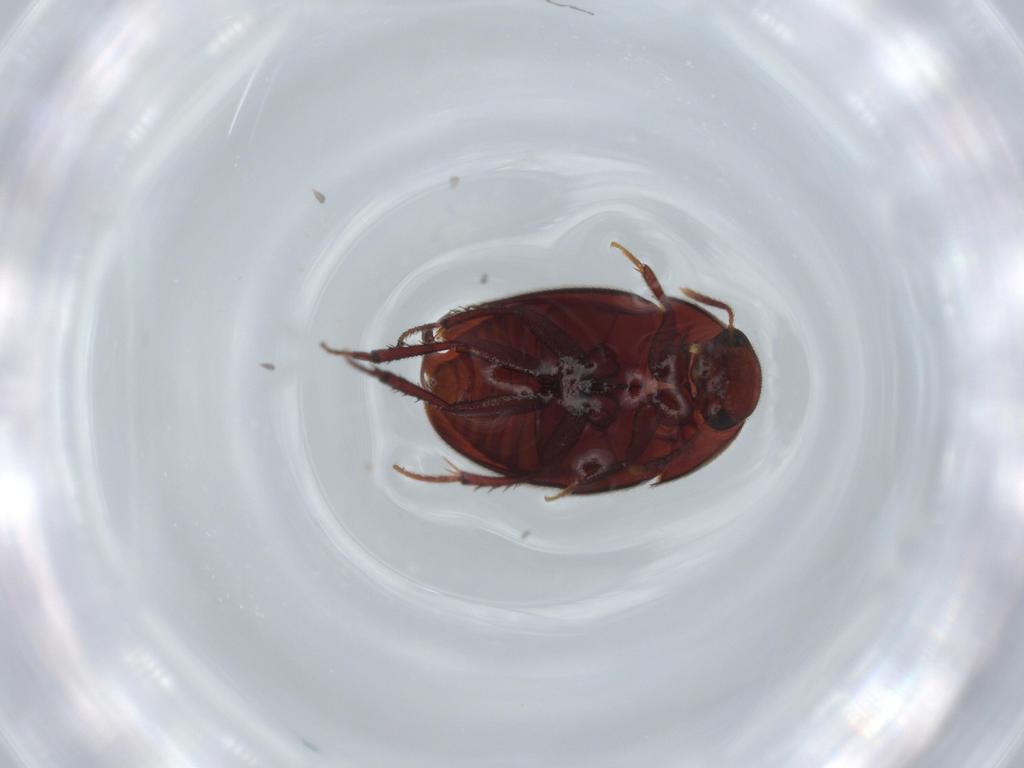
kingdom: Animalia
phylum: Arthropoda
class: Insecta
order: Coleoptera
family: Leiodidae
